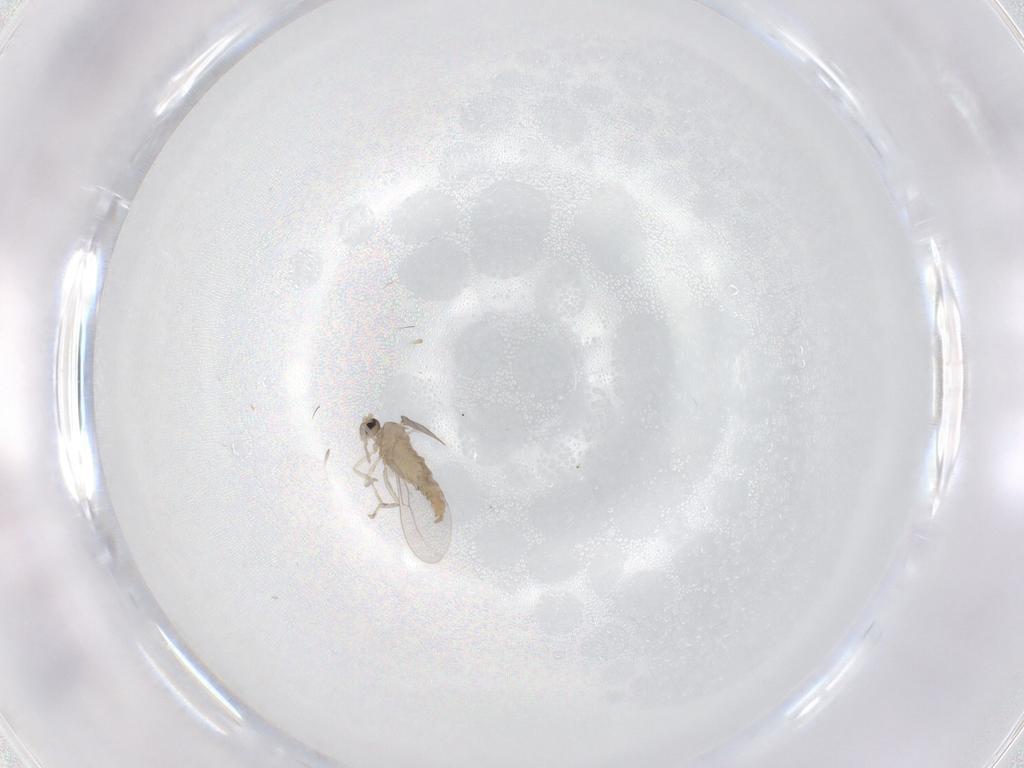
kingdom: Animalia
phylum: Arthropoda
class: Insecta
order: Diptera
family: Cecidomyiidae
